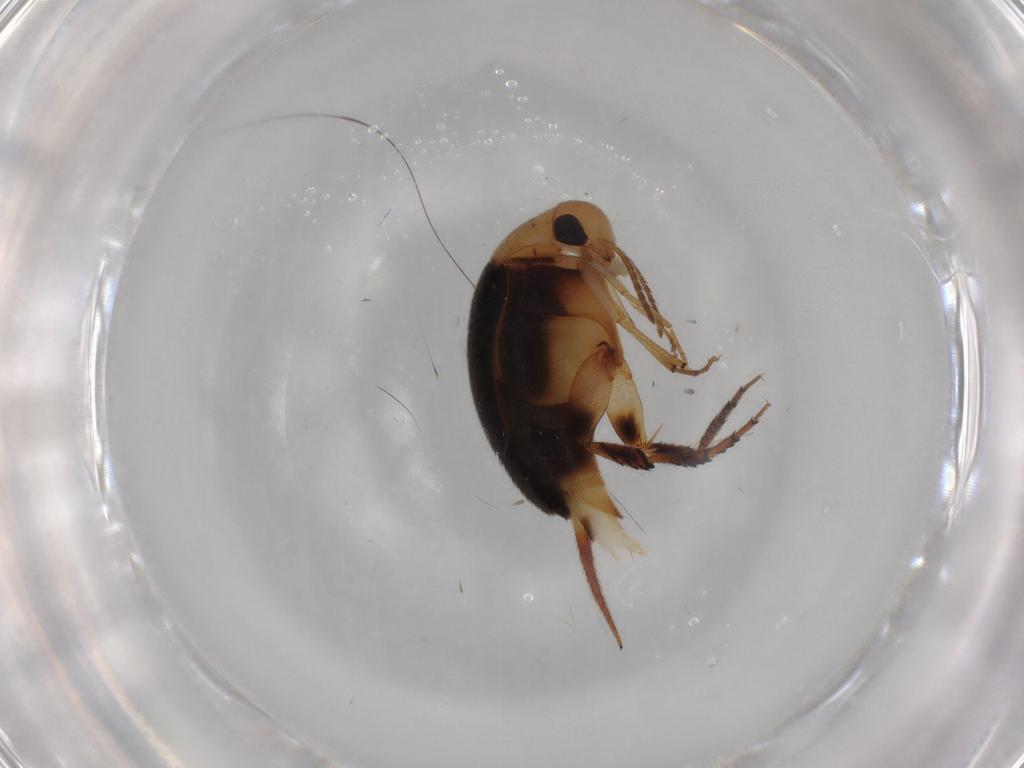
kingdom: Animalia
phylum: Arthropoda
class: Insecta
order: Coleoptera
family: Mordellidae
